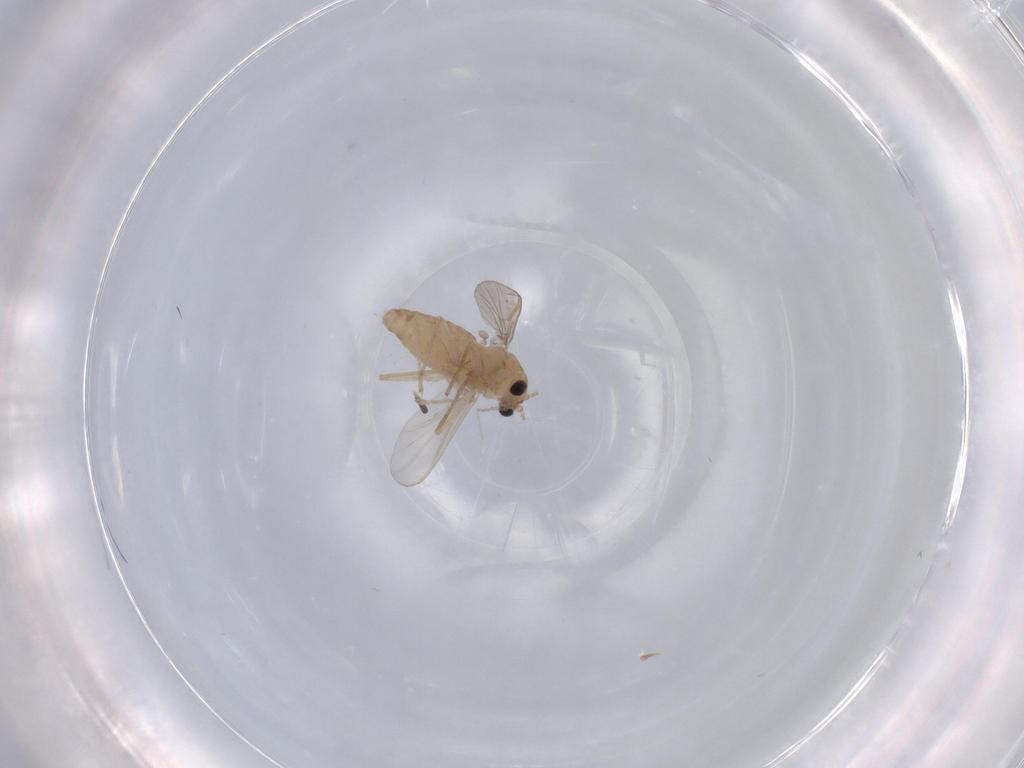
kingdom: Animalia
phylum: Arthropoda
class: Insecta
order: Diptera
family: Chironomidae
